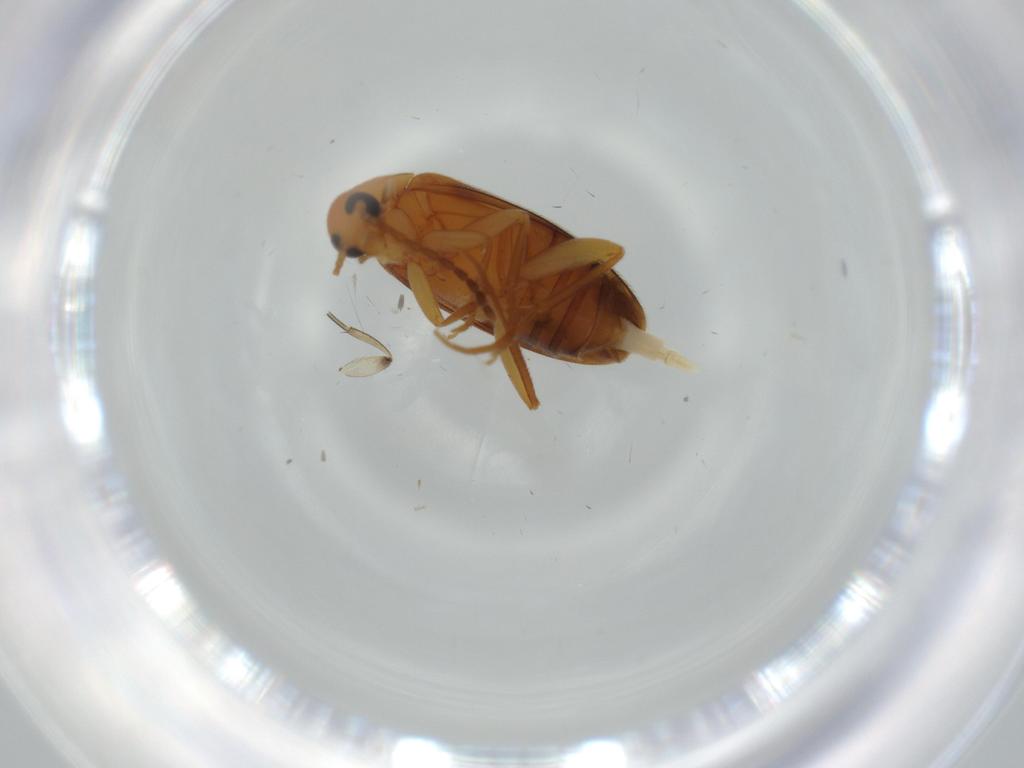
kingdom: Animalia
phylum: Arthropoda
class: Insecta
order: Coleoptera
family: Scraptiidae
